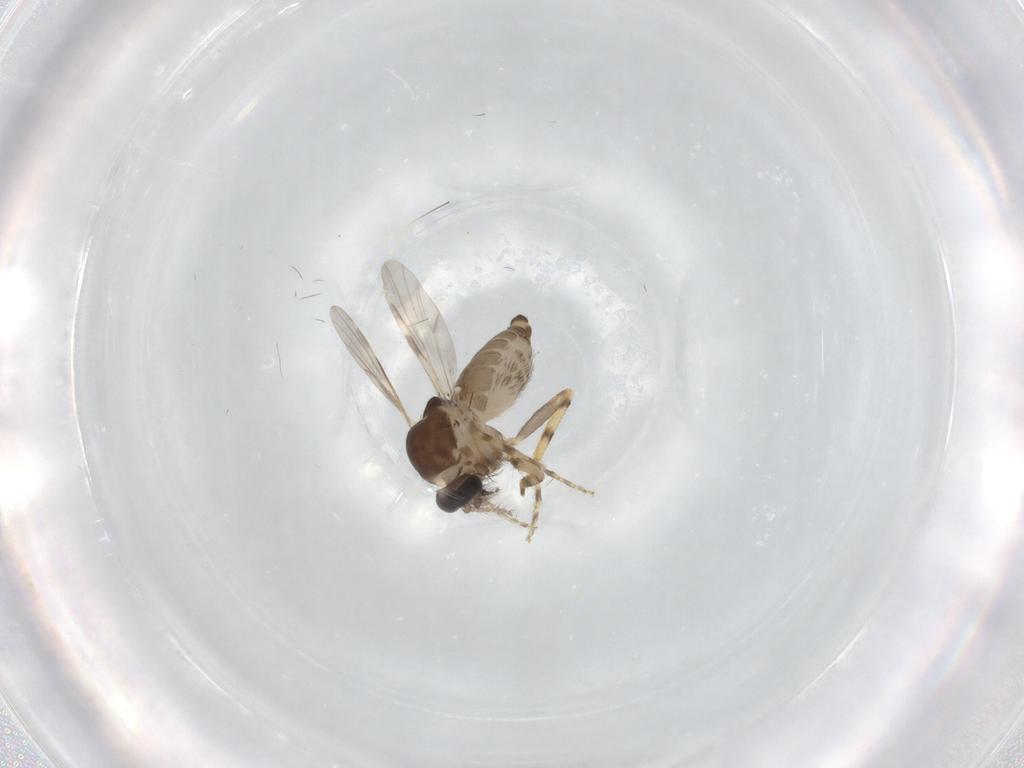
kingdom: Animalia
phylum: Arthropoda
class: Insecta
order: Diptera
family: Ceratopogonidae
